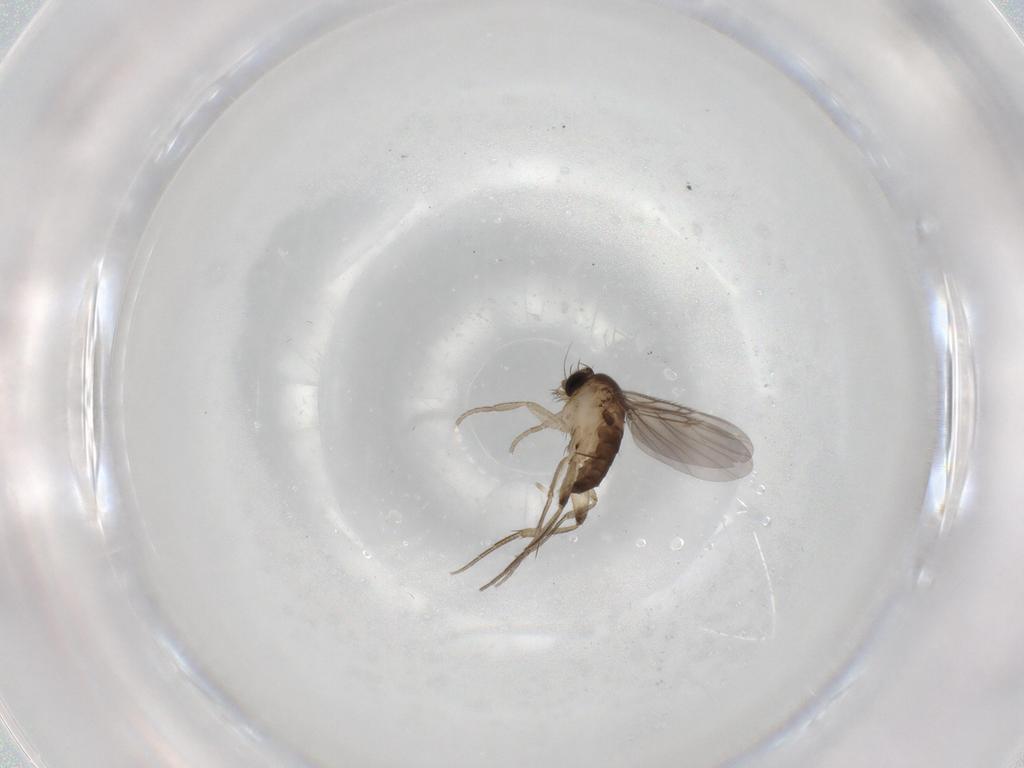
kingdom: Animalia
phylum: Arthropoda
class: Insecta
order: Diptera
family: Phoridae
